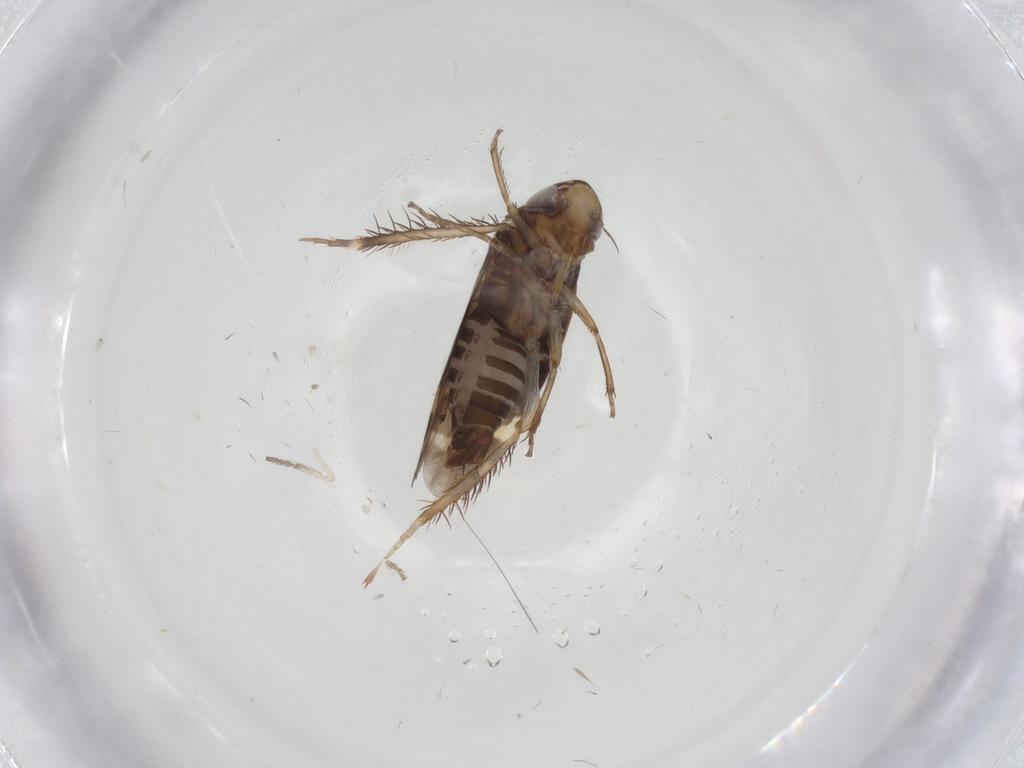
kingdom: Animalia
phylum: Arthropoda
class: Insecta
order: Hemiptera
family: Cicadellidae
